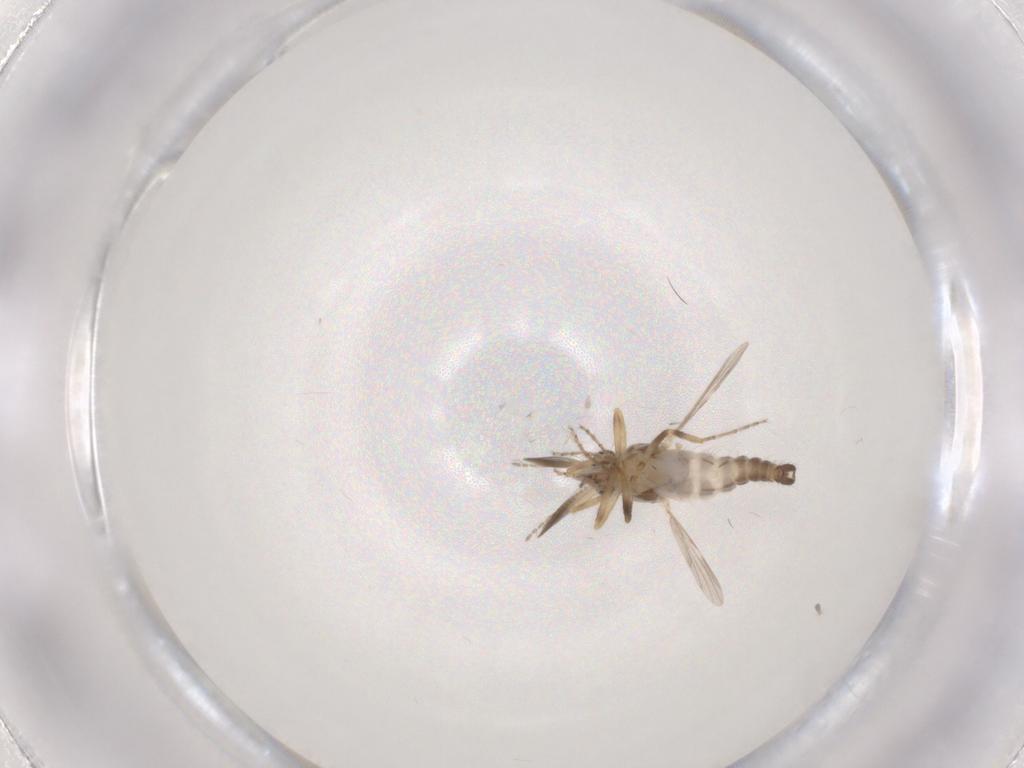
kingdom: Animalia
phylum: Arthropoda
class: Insecta
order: Diptera
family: Ceratopogonidae
